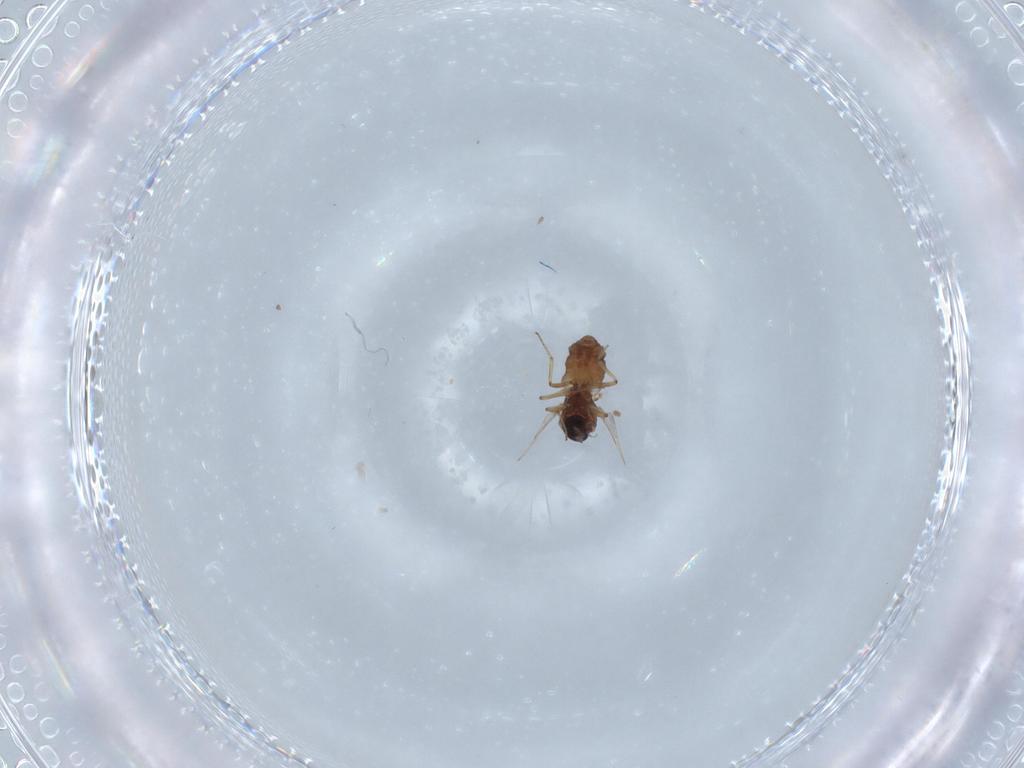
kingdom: Animalia
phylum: Arthropoda
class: Insecta
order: Diptera
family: Ceratopogonidae
